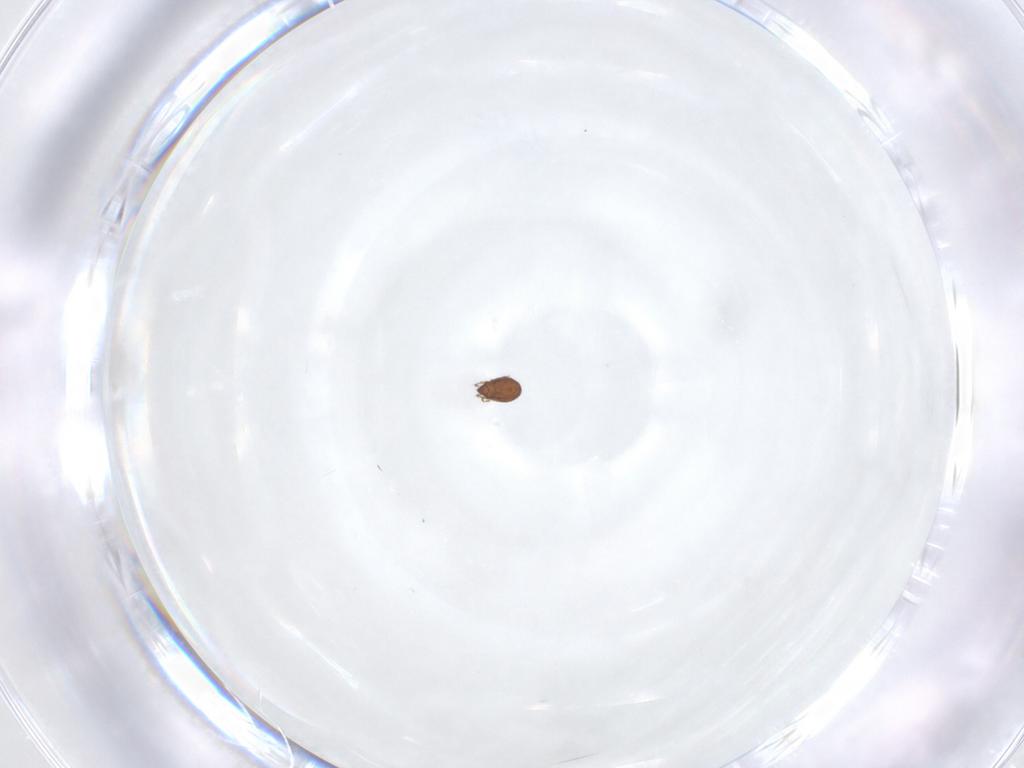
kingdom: Animalia
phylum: Arthropoda
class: Arachnida
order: Sarcoptiformes
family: Dendroeremaeidae
